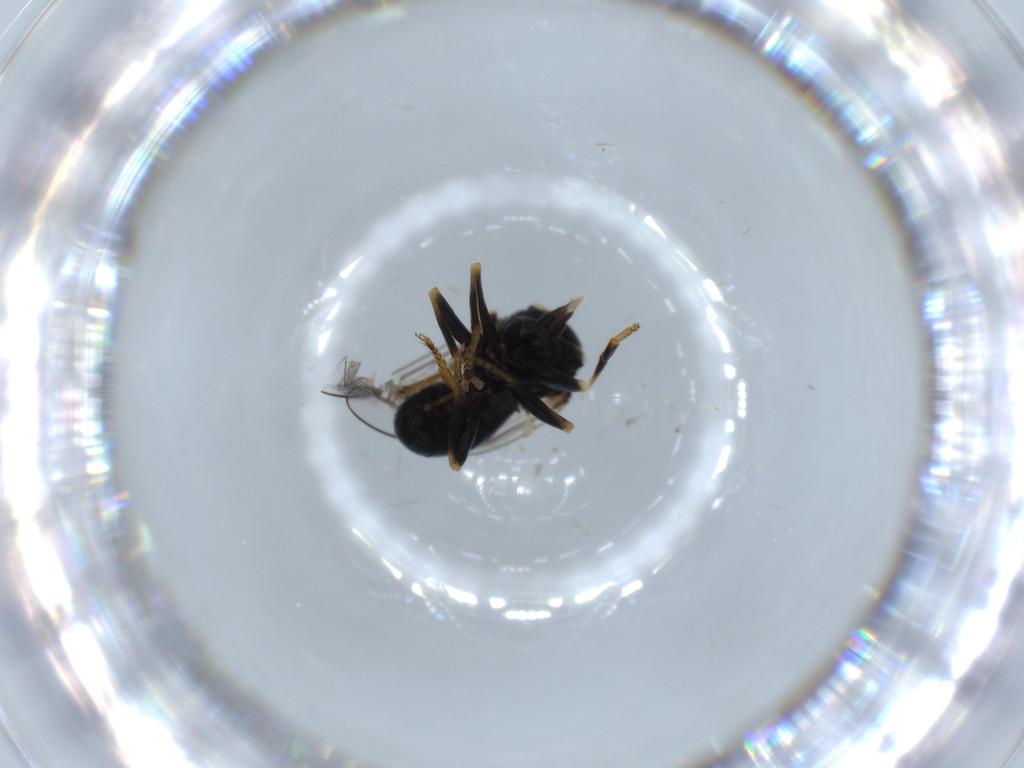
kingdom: Animalia
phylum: Arthropoda
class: Insecta
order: Diptera
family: Pipunculidae
